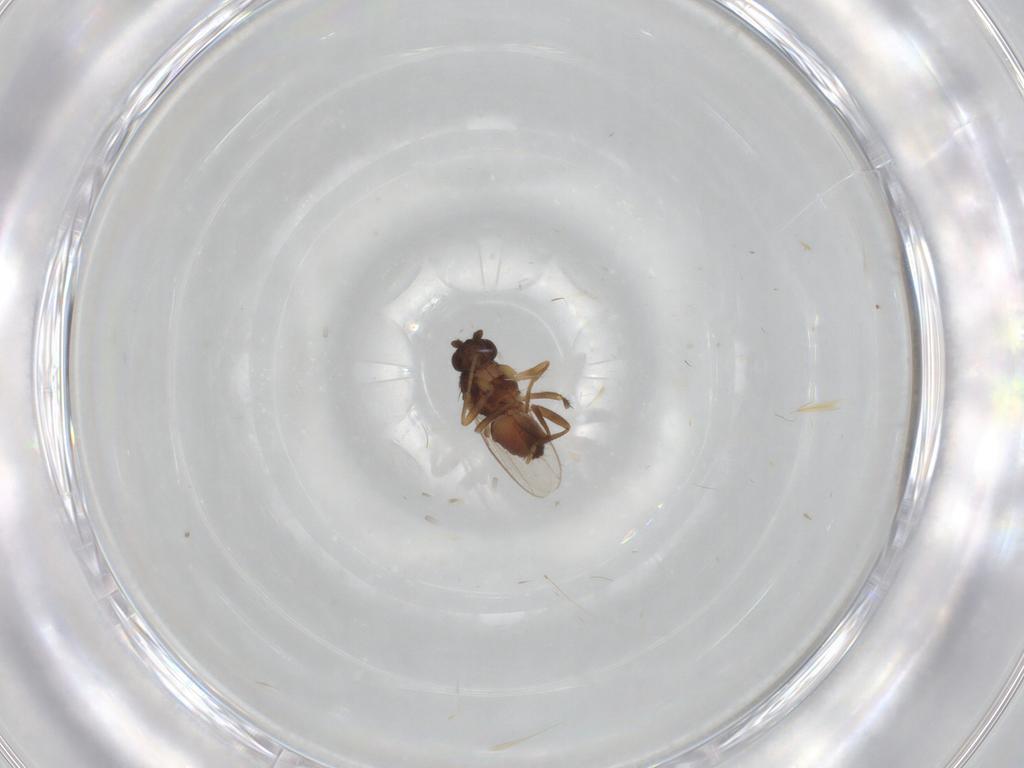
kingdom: Animalia
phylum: Arthropoda
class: Insecta
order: Diptera
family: Sphaeroceridae
